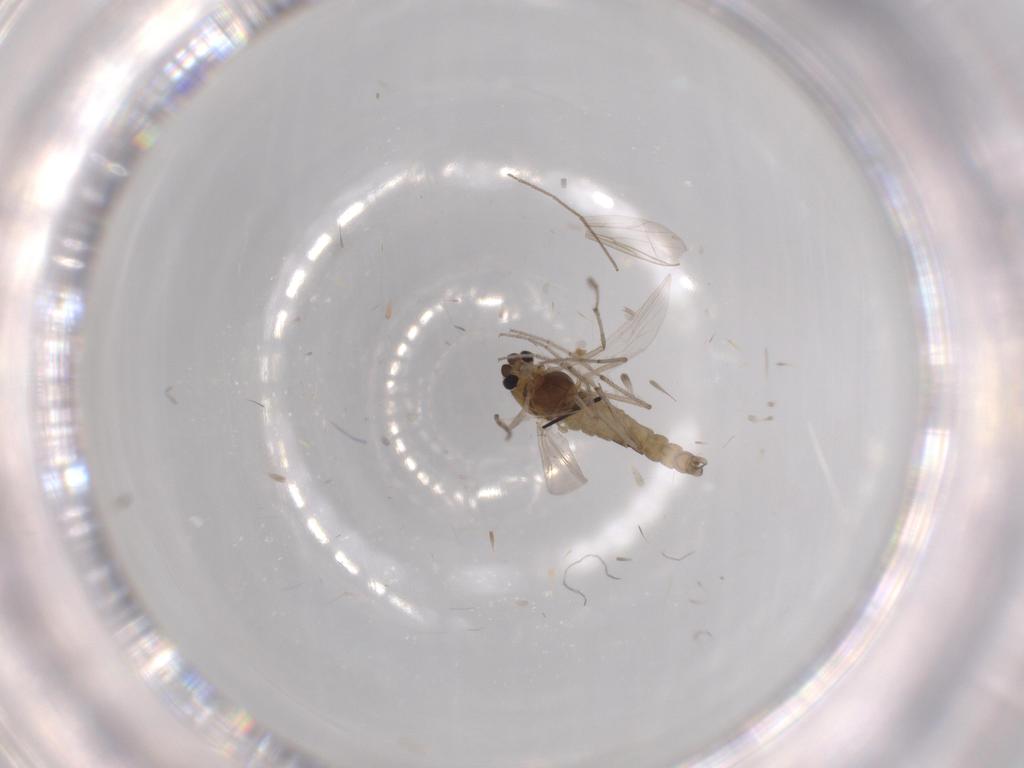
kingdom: Animalia
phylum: Arthropoda
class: Insecta
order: Diptera
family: Chironomidae
